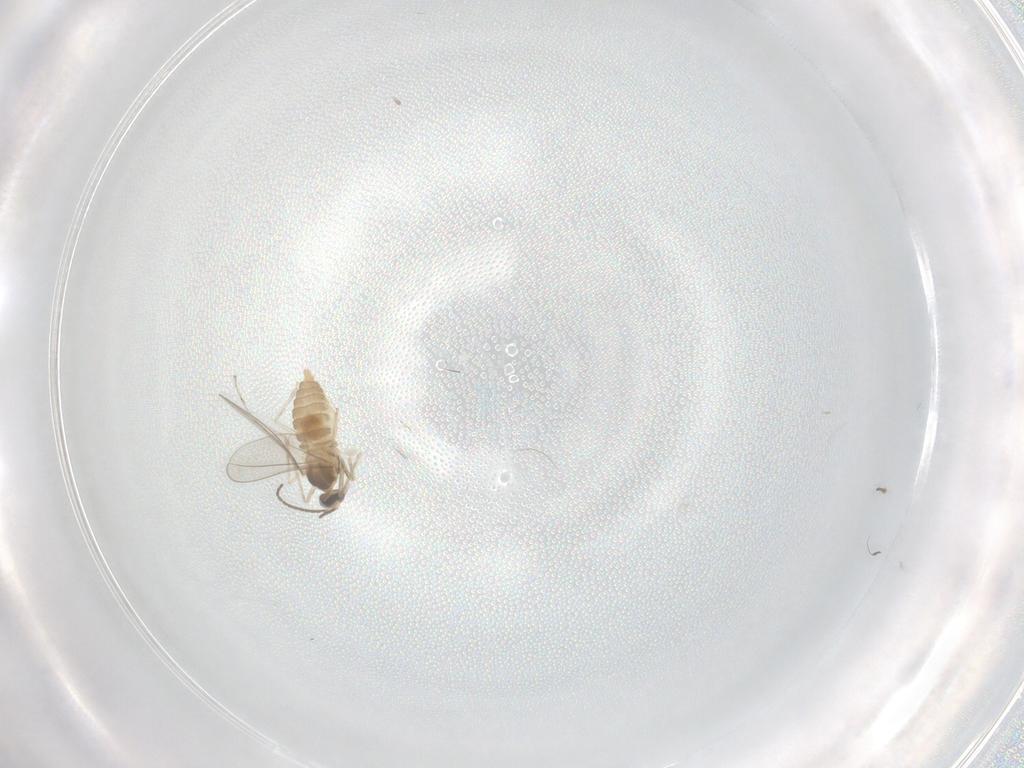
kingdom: Animalia
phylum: Arthropoda
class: Insecta
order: Diptera
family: Cecidomyiidae
